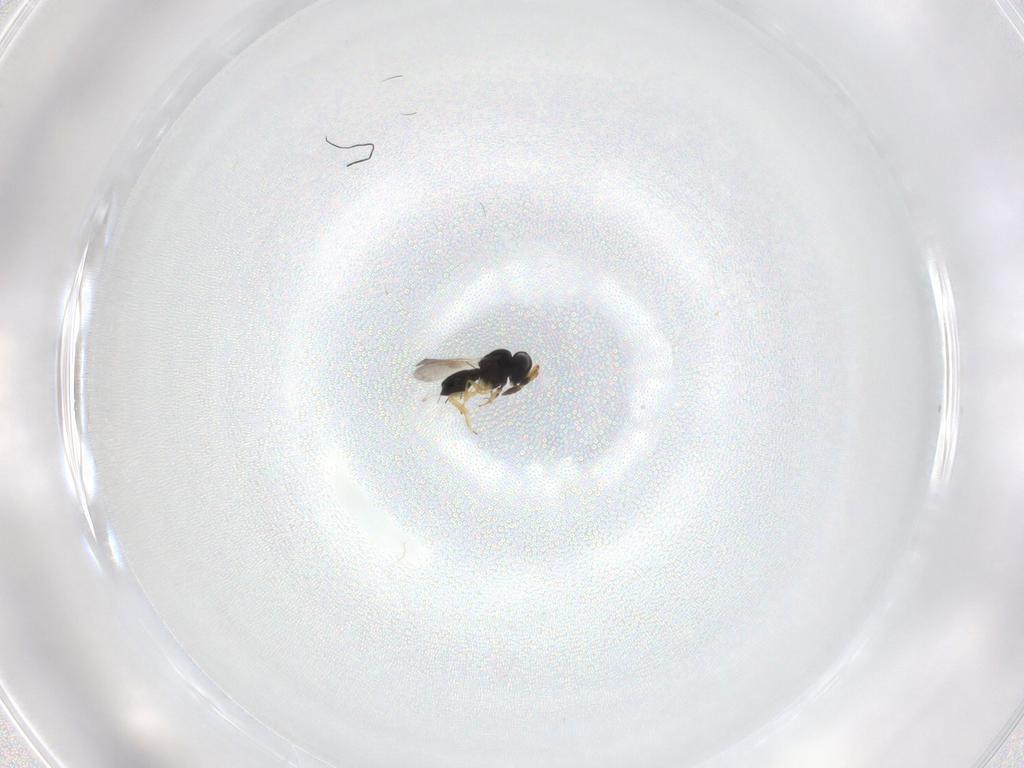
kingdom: Animalia
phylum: Arthropoda
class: Insecta
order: Hymenoptera
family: Scelionidae
